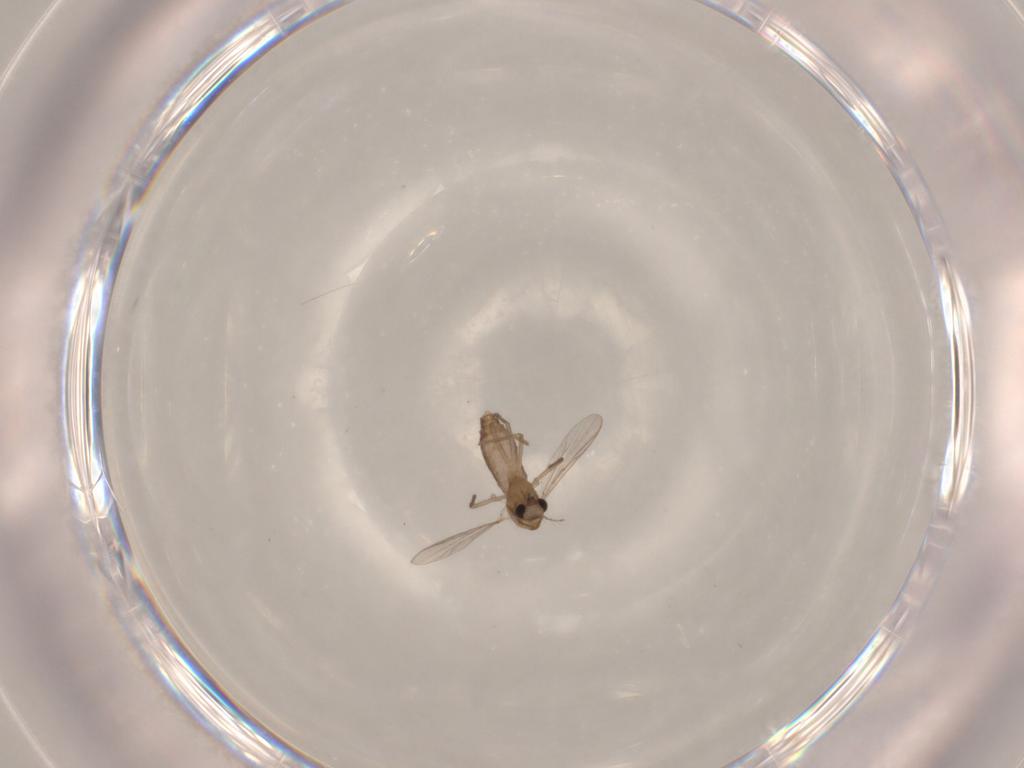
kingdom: Animalia
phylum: Arthropoda
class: Insecta
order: Diptera
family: Chironomidae
